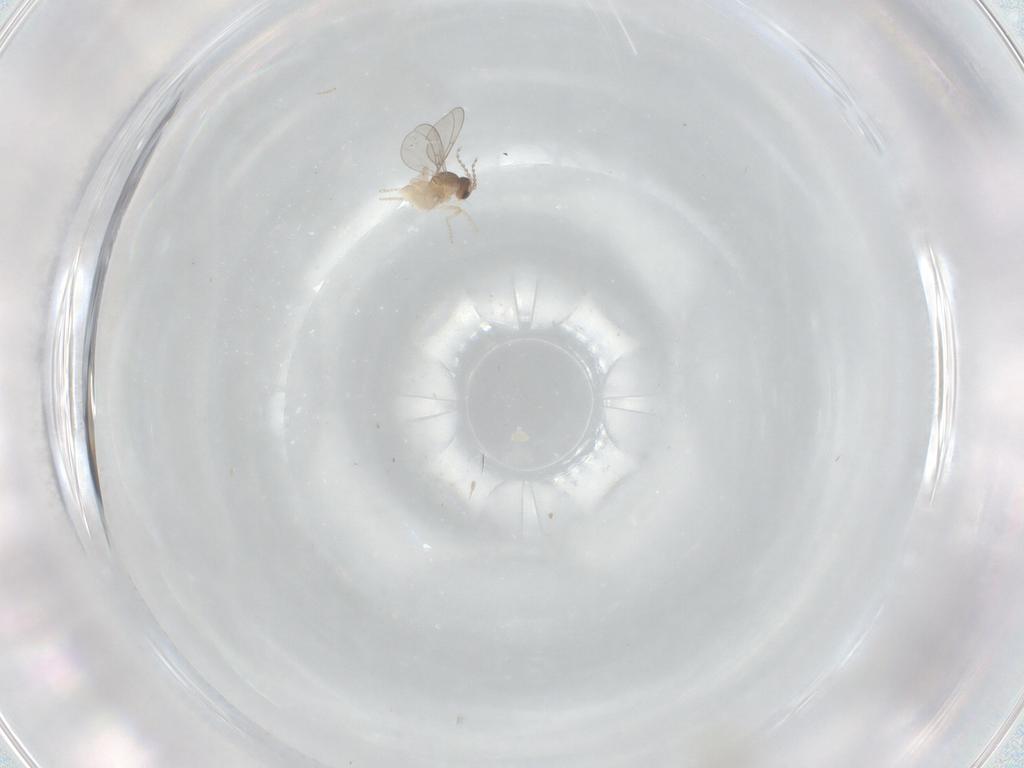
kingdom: Animalia
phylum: Arthropoda
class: Insecta
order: Diptera
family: Cecidomyiidae
